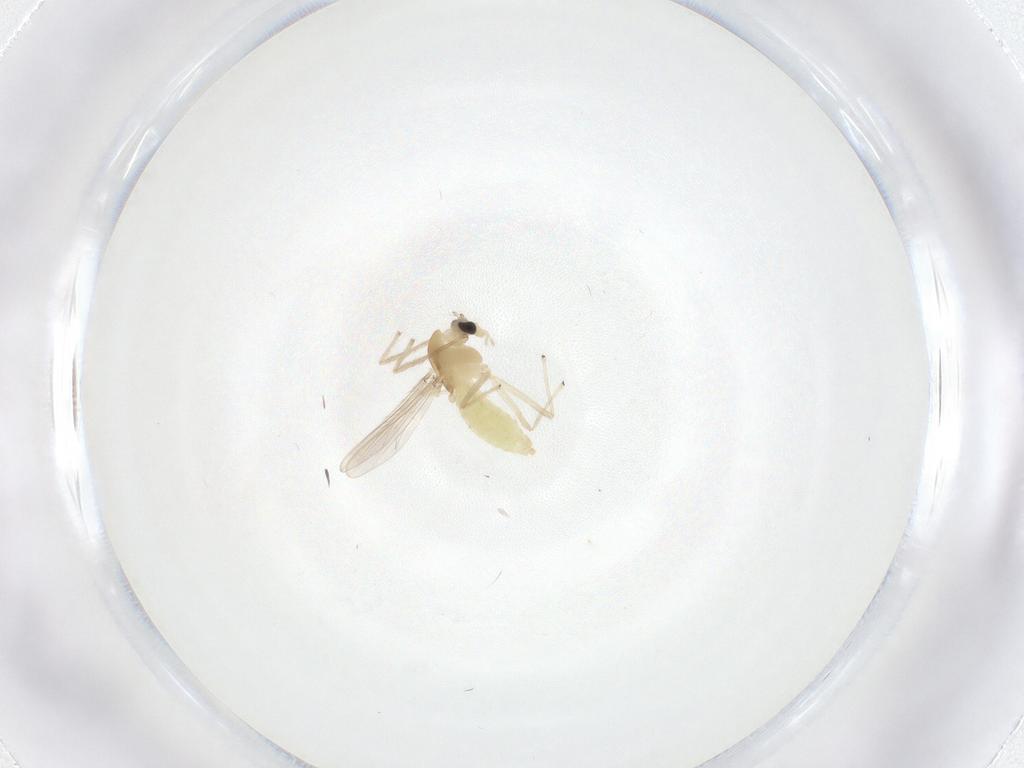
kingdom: Animalia
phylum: Arthropoda
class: Insecta
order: Diptera
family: Chironomidae
